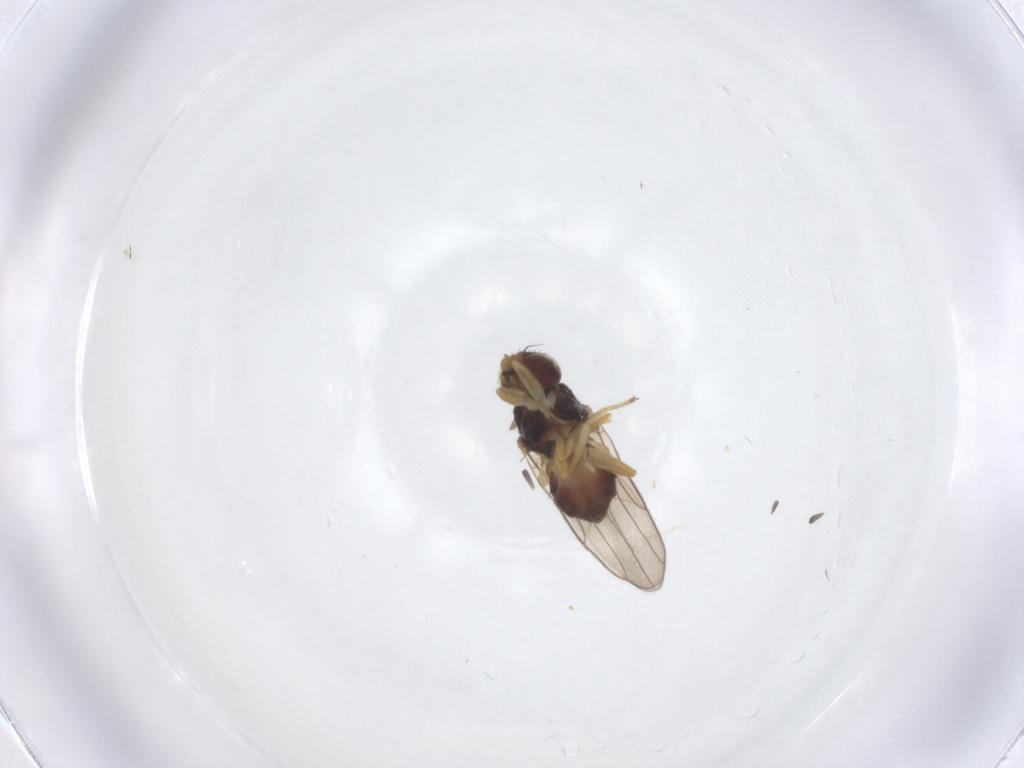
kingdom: Animalia
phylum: Arthropoda
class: Insecta
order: Diptera
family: Chloropidae
